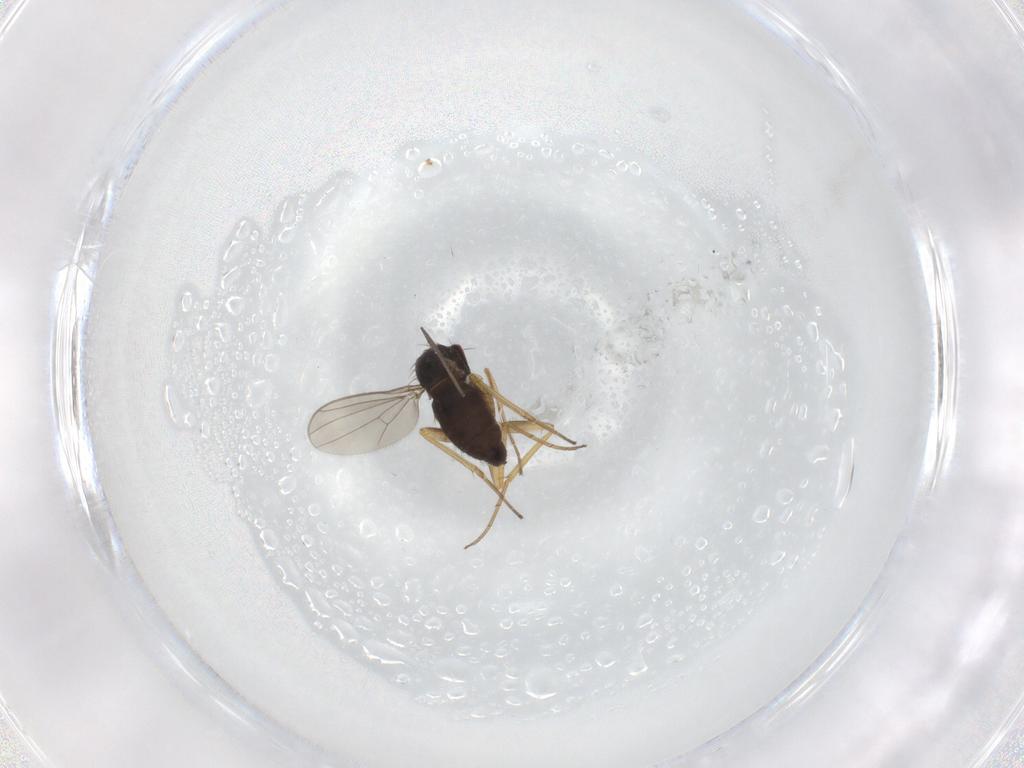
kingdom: Animalia
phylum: Arthropoda
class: Insecta
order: Diptera
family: Dolichopodidae
